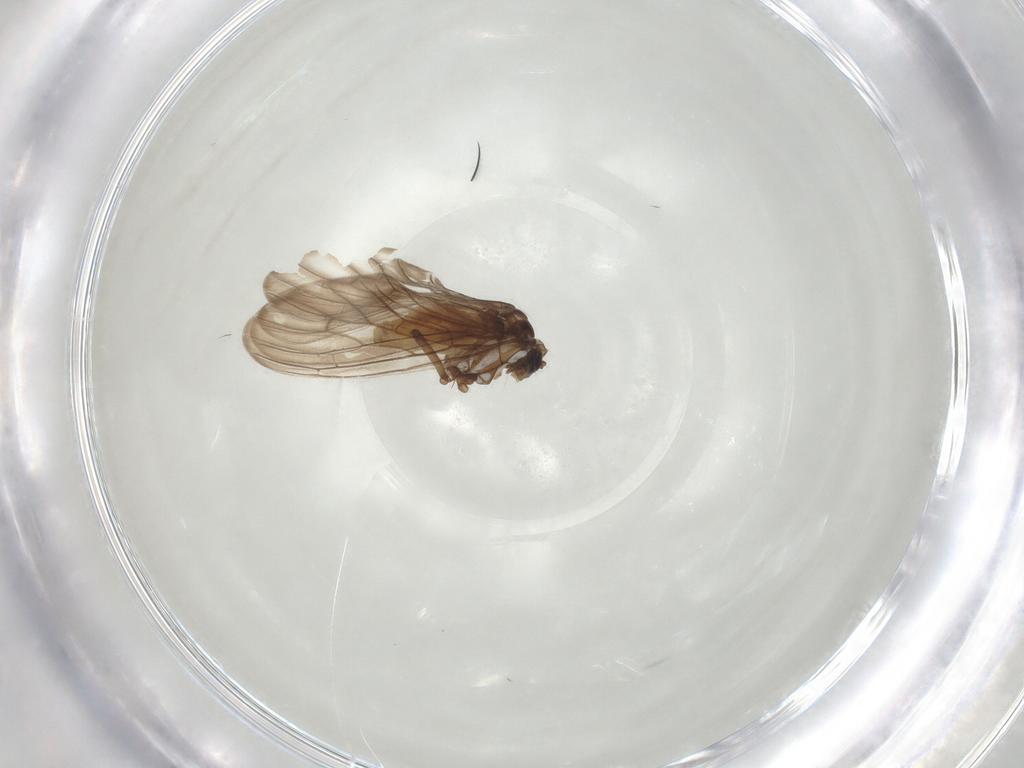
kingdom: Animalia
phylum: Arthropoda
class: Insecta
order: Neuroptera
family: Coniopterygidae
